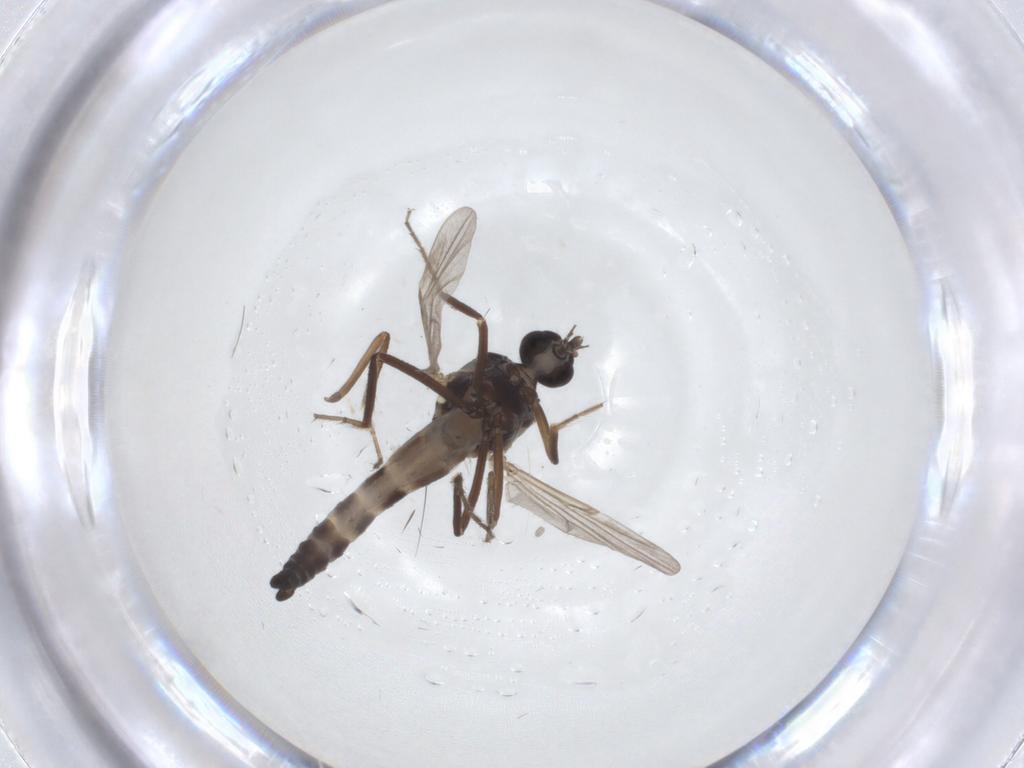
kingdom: Animalia
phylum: Arthropoda
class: Insecta
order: Diptera
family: Ceratopogonidae
